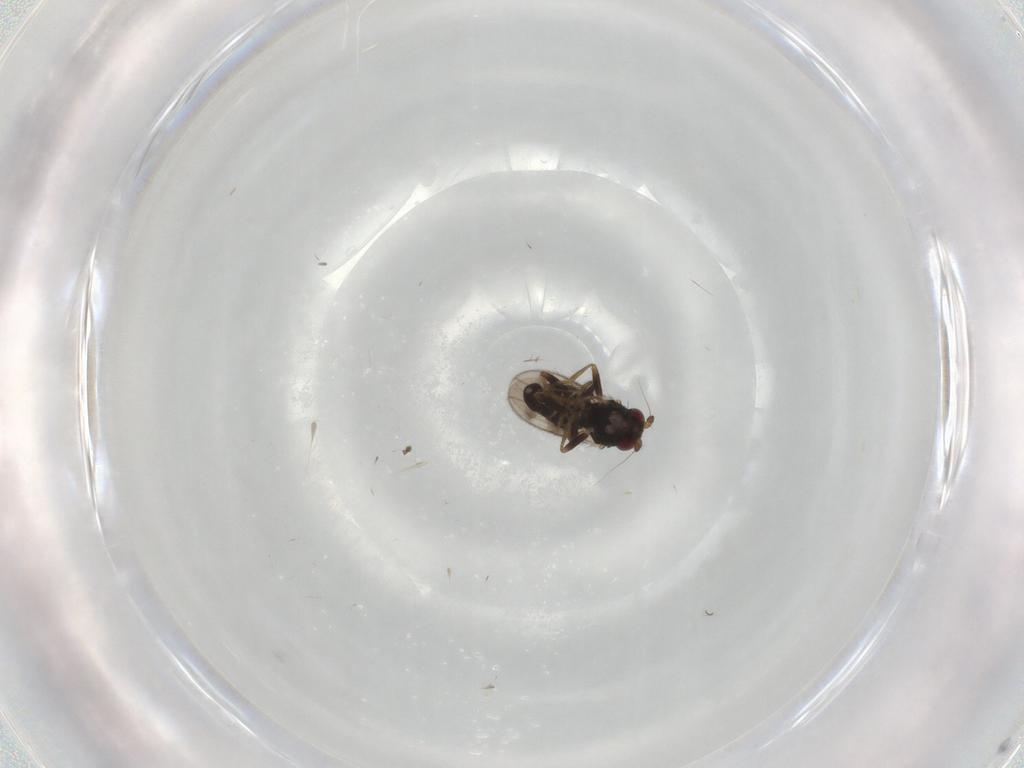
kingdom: Animalia
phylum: Arthropoda
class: Insecta
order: Diptera
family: Sphaeroceridae
